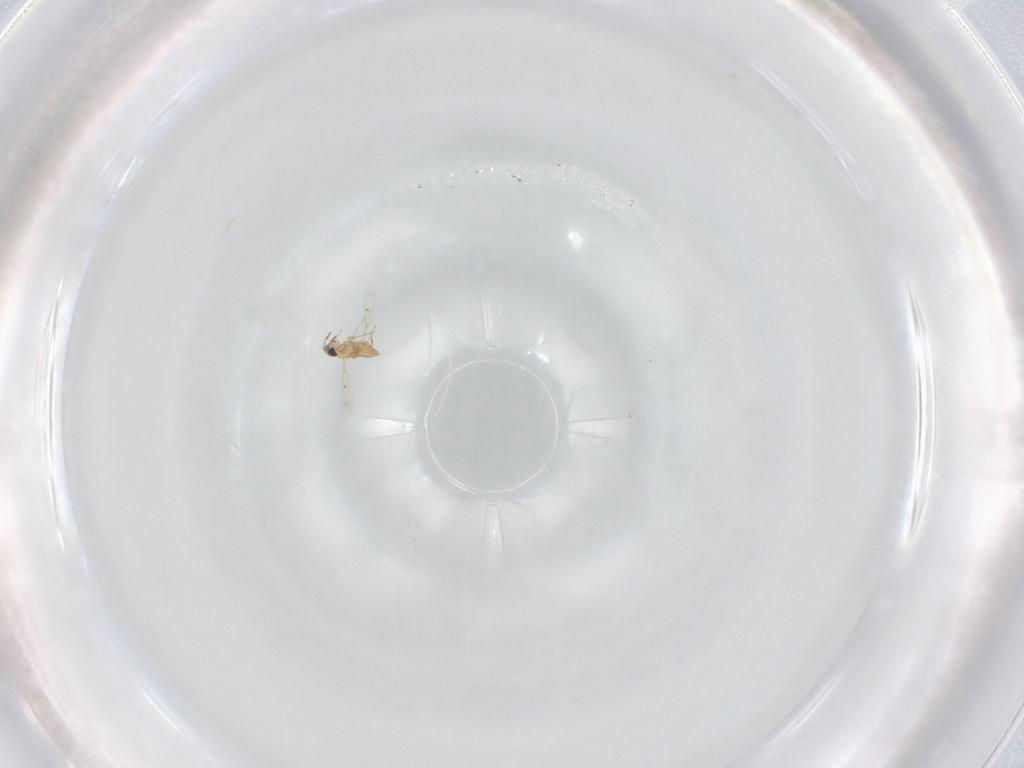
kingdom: Animalia
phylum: Arthropoda
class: Insecta
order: Hymenoptera
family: Trichogrammatidae
